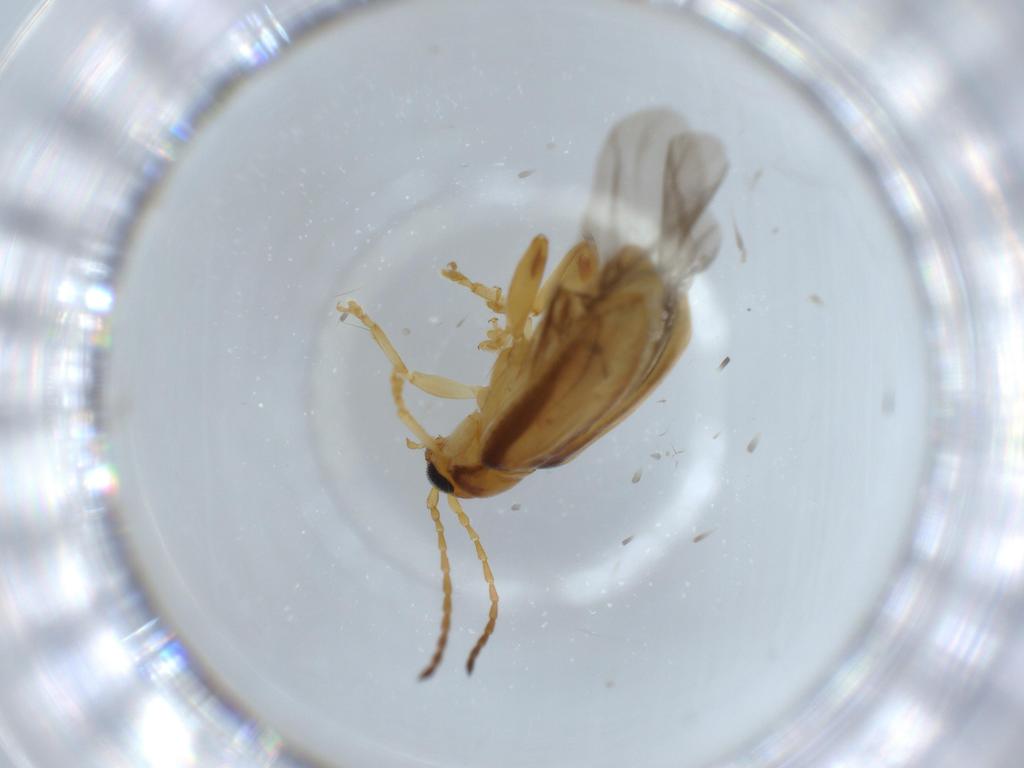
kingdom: Animalia
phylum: Arthropoda
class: Insecta
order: Coleoptera
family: Chrysomelidae
